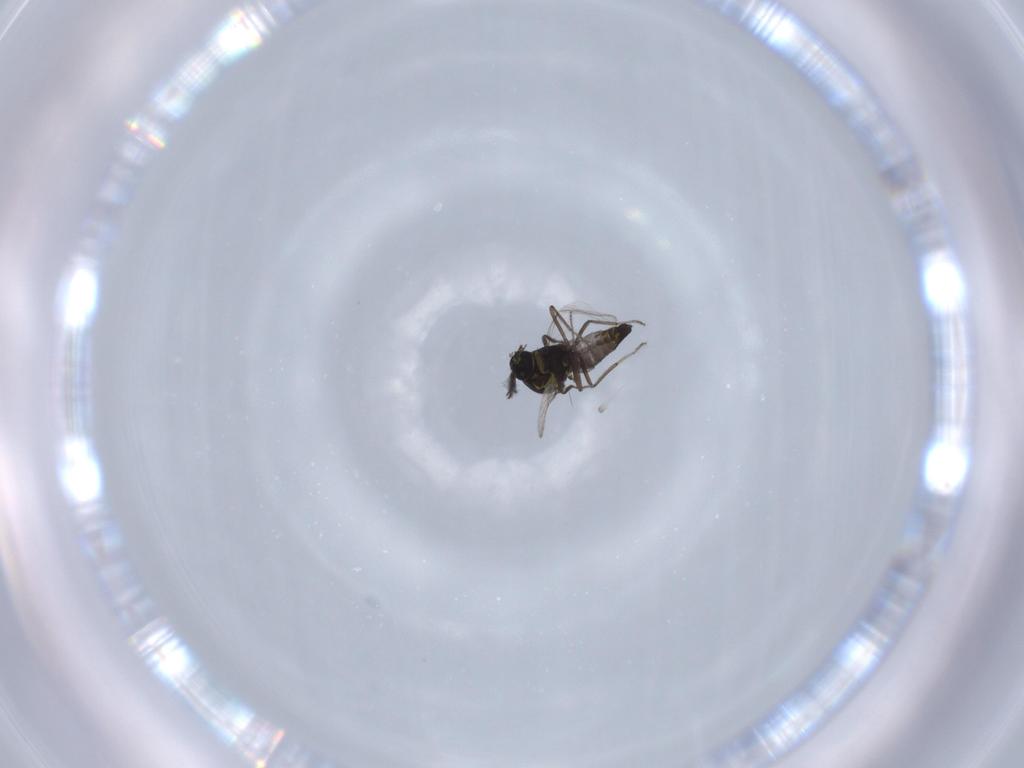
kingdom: Animalia
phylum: Arthropoda
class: Insecta
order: Diptera
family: Ceratopogonidae
